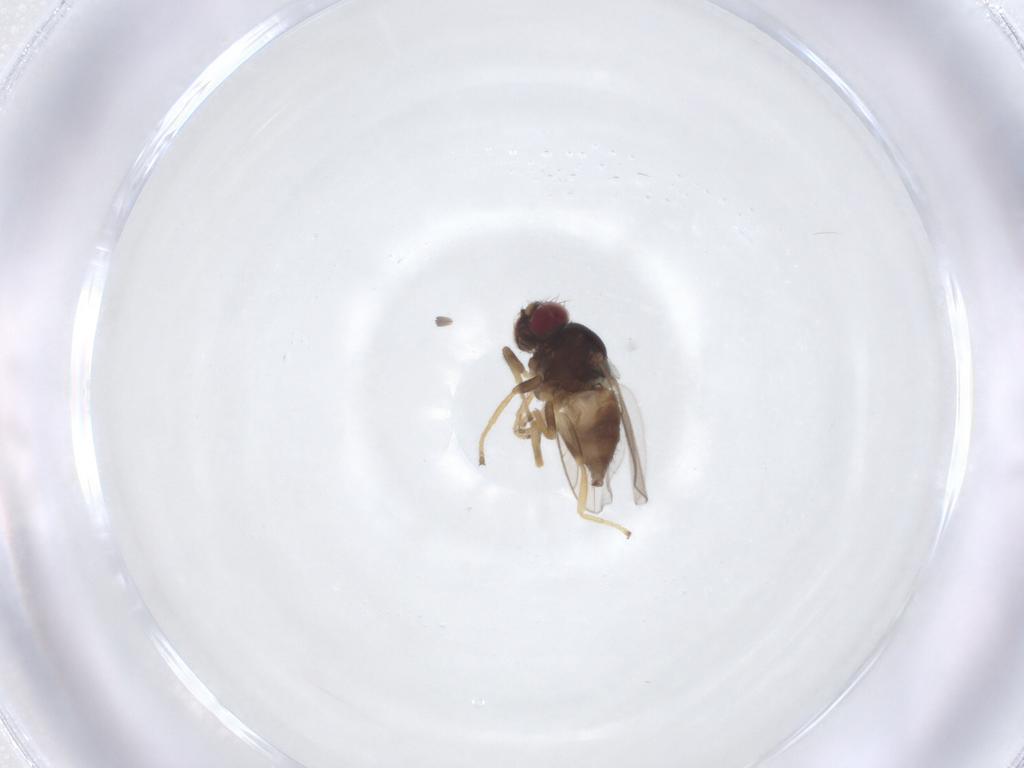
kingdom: Animalia
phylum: Arthropoda
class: Insecta
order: Diptera
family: Chloropidae
